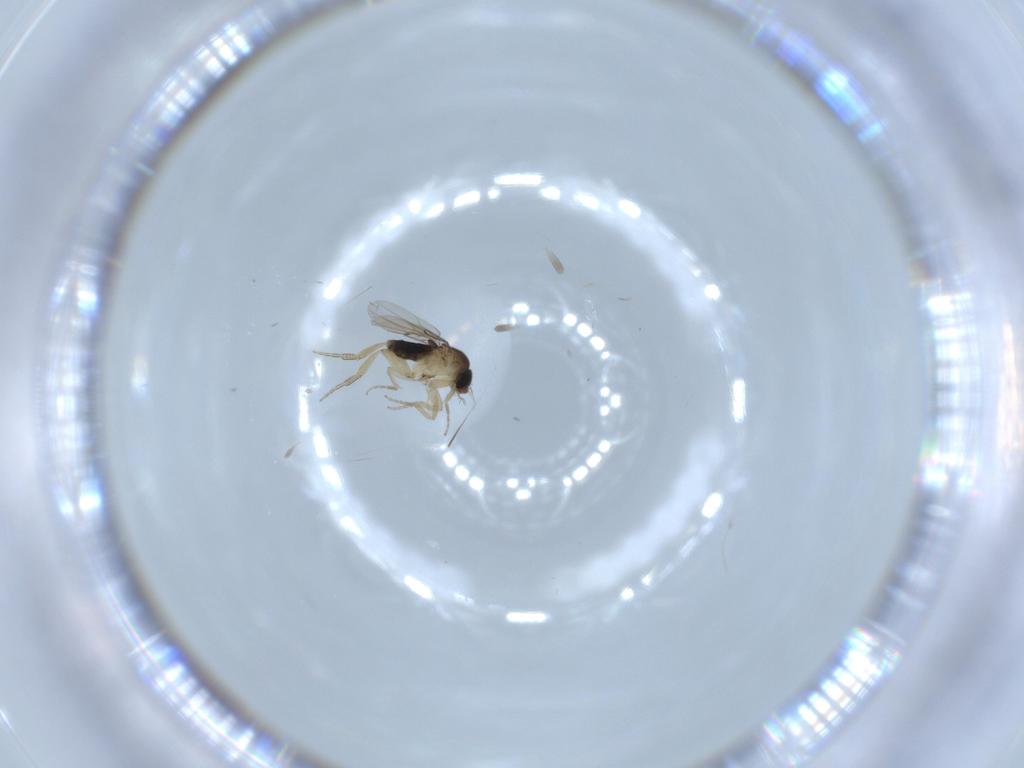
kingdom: Animalia
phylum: Arthropoda
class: Insecta
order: Diptera
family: Phoridae
